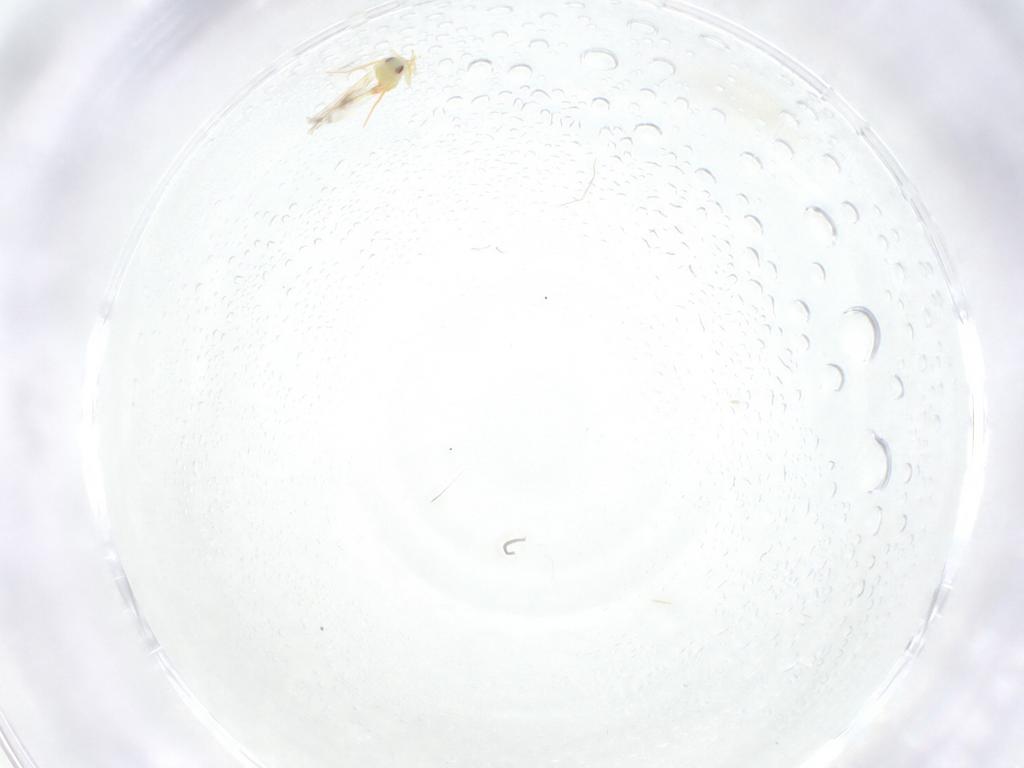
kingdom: Animalia
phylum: Arthropoda
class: Insecta
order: Hemiptera
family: Aleyrodidae
